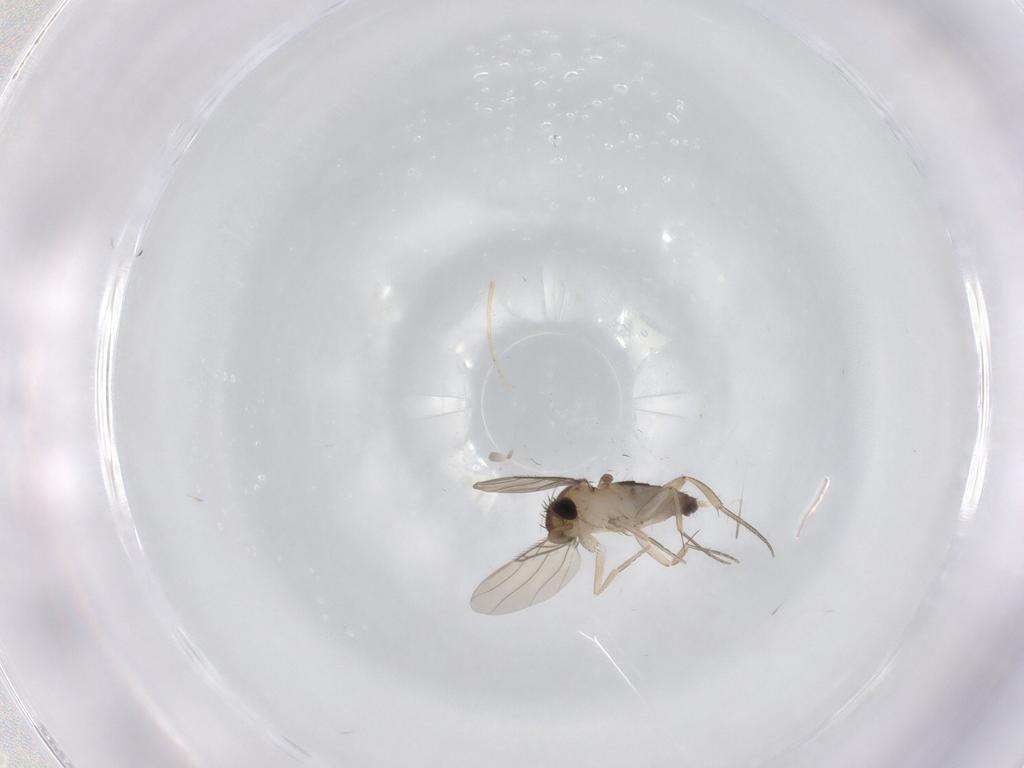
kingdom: Animalia
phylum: Arthropoda
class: Insecta
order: Diptera
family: Phoridae
